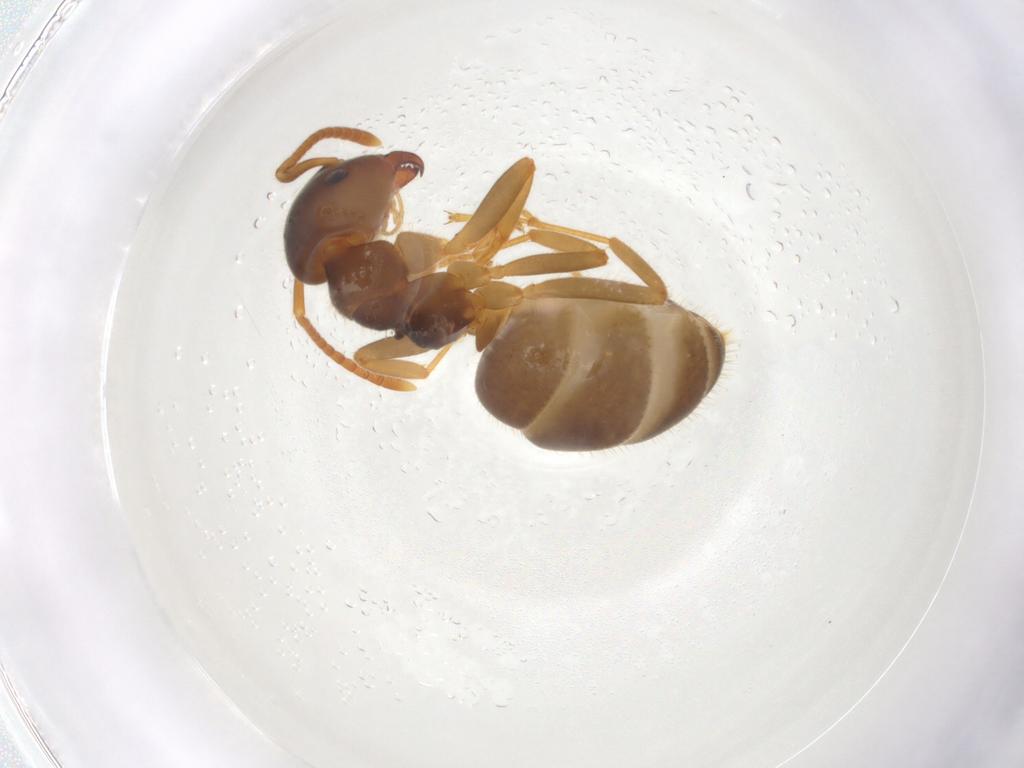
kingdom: Animalia
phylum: Arthropoda
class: Insecta
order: Hymenoptera
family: Formicidae
